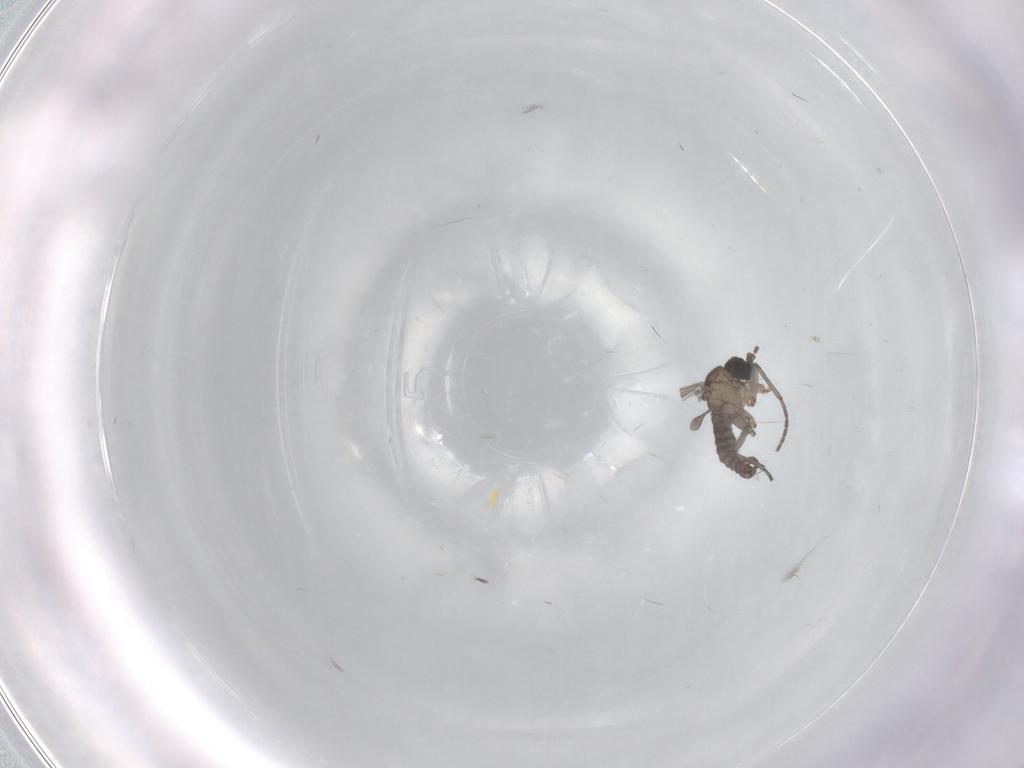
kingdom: Animalia
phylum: Arthropoda
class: Insecta
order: Diptera
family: Sciaridae
